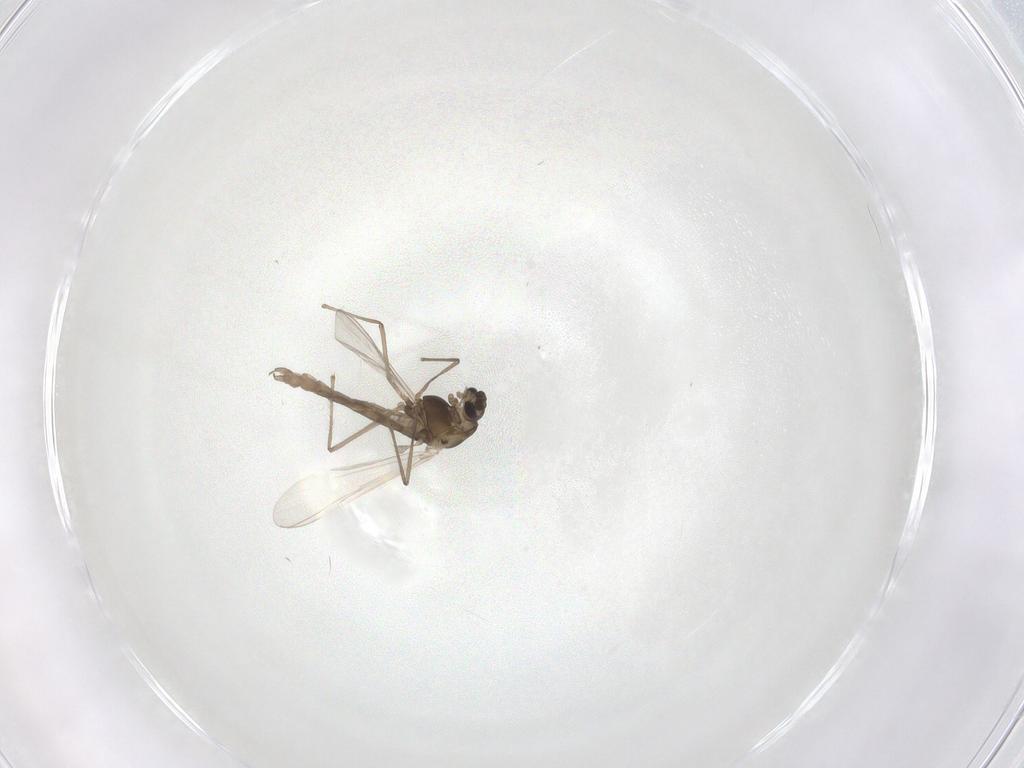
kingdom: Animalia
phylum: Arthropoda
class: Insecta
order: Diptera
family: Chironomidae
